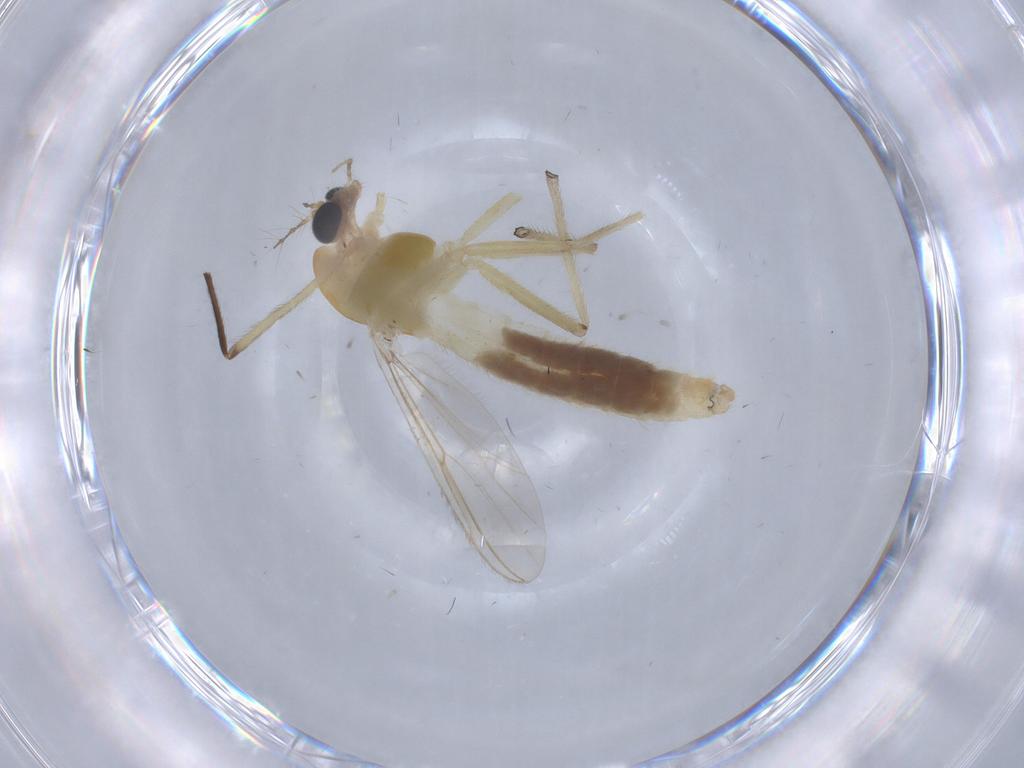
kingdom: Animalia
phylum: Arthropoda
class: Insecta
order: Diptera
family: Chironomidae
